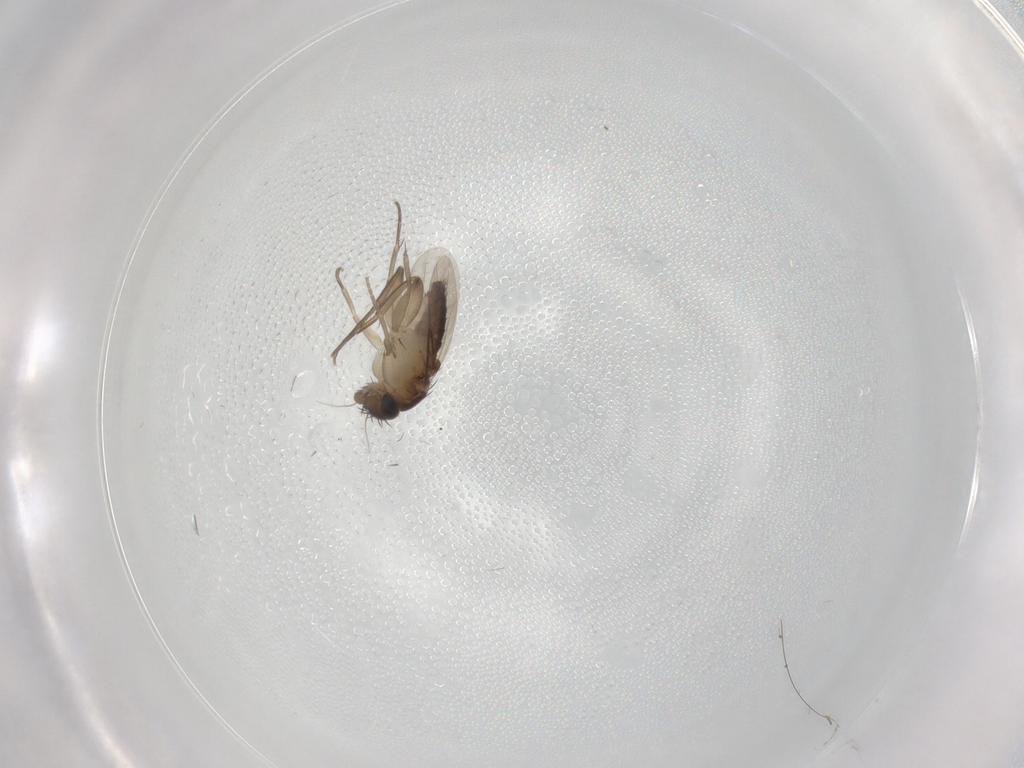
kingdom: Animalia
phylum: Arthropoda
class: Insecta
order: Diptera
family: Phoridae
